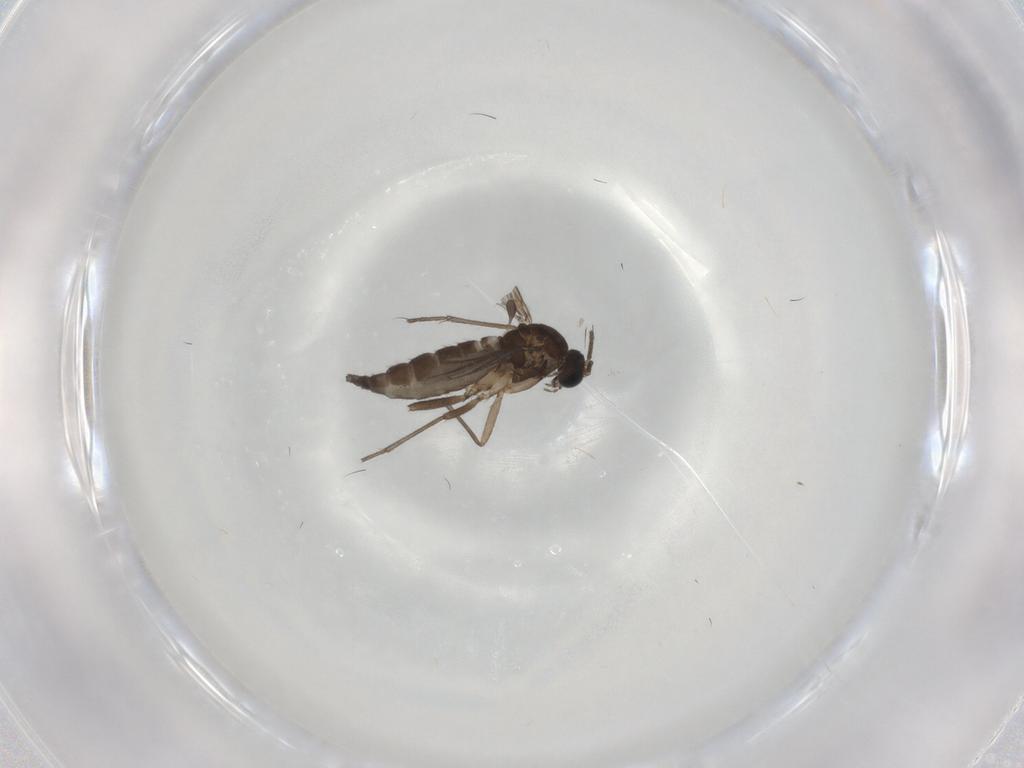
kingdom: Animalia
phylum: Arthropoda
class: Insecta
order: Diptera
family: Sciaridae
